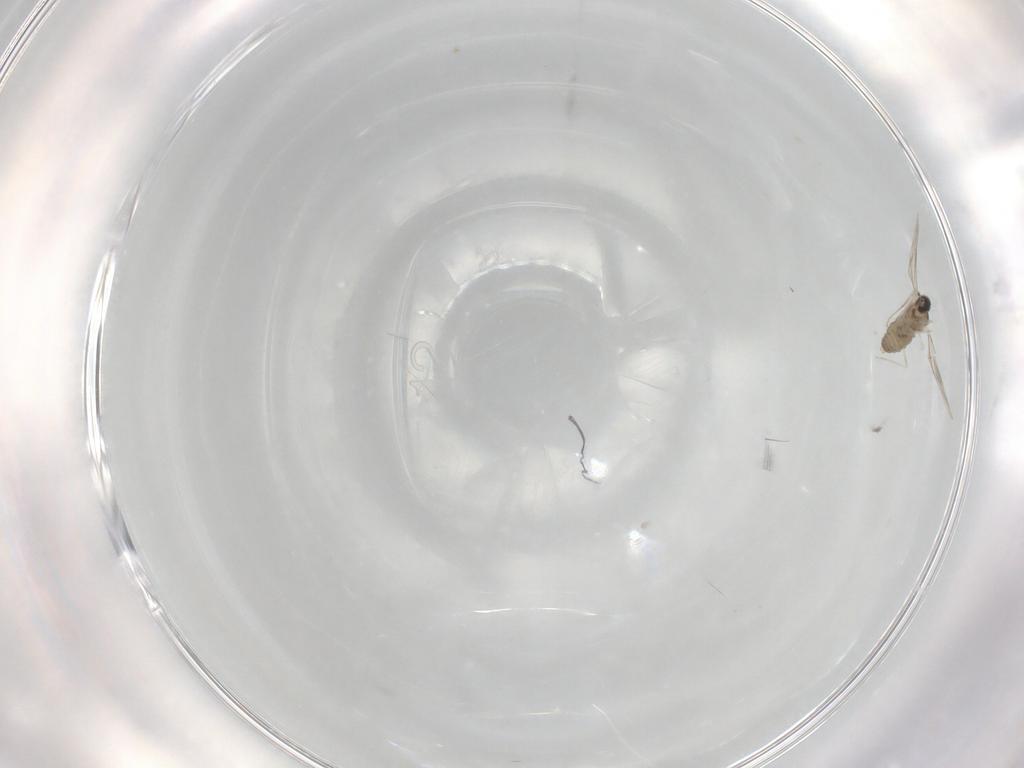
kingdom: Animalia
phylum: Arthropoda
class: Insecta
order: Diptera
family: Cecidomyiidae
